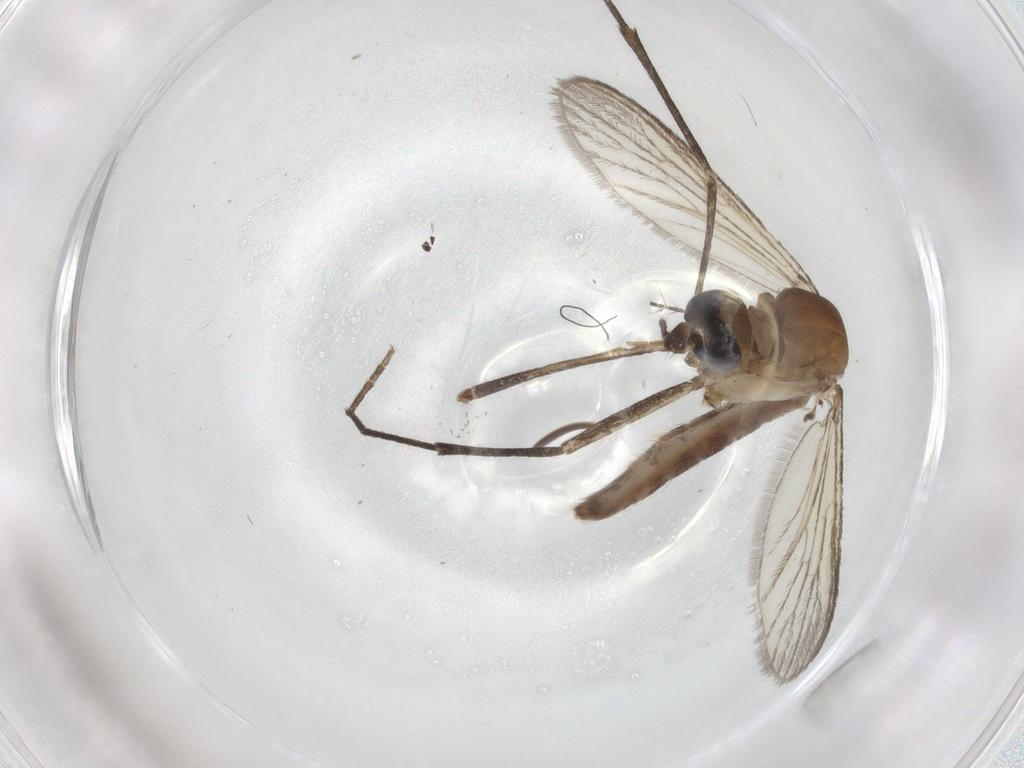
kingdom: Animalia
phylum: Arthropoda
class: Insecta
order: Diptera
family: Cecidomyiidae
